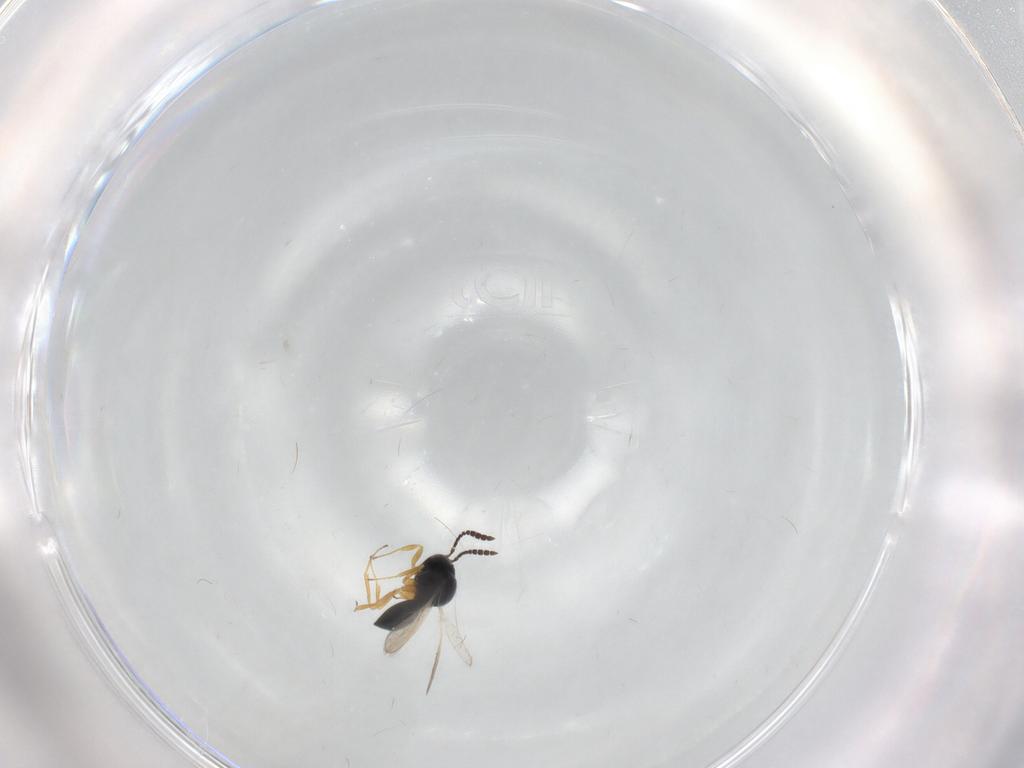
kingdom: Animalia
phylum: Arthropoda
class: Insecta
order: Hymenoptera
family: Scelionidae
